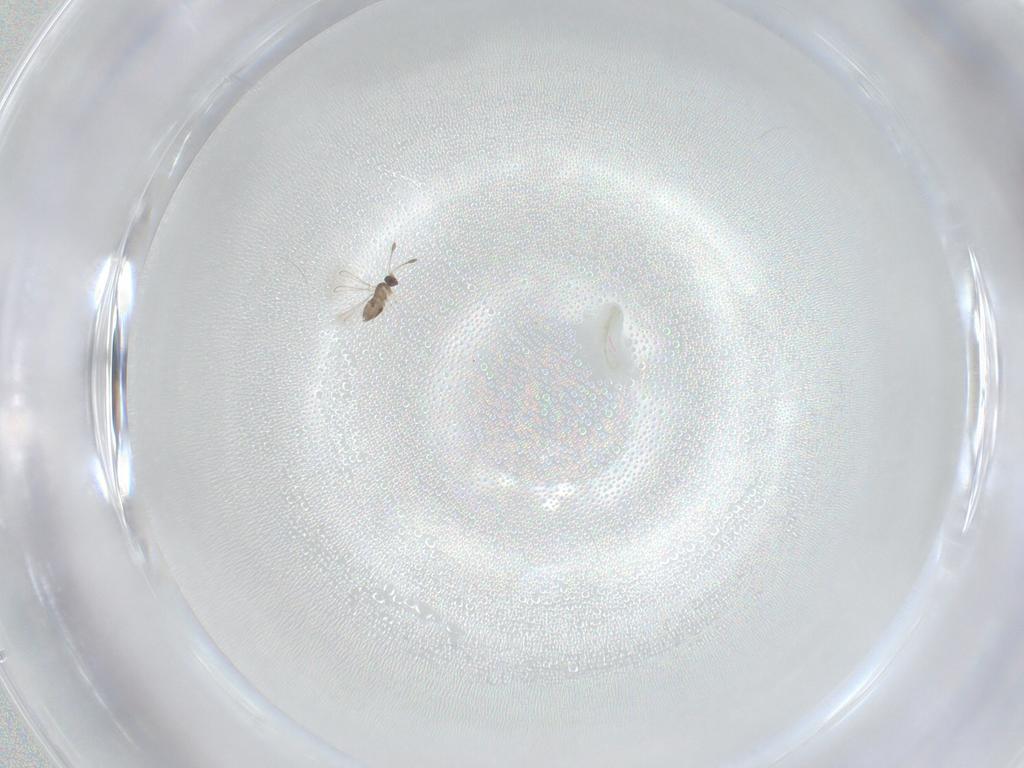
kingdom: Animalia
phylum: Arthropoda
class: Insecta
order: Hymenoptera
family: Mymaridae
